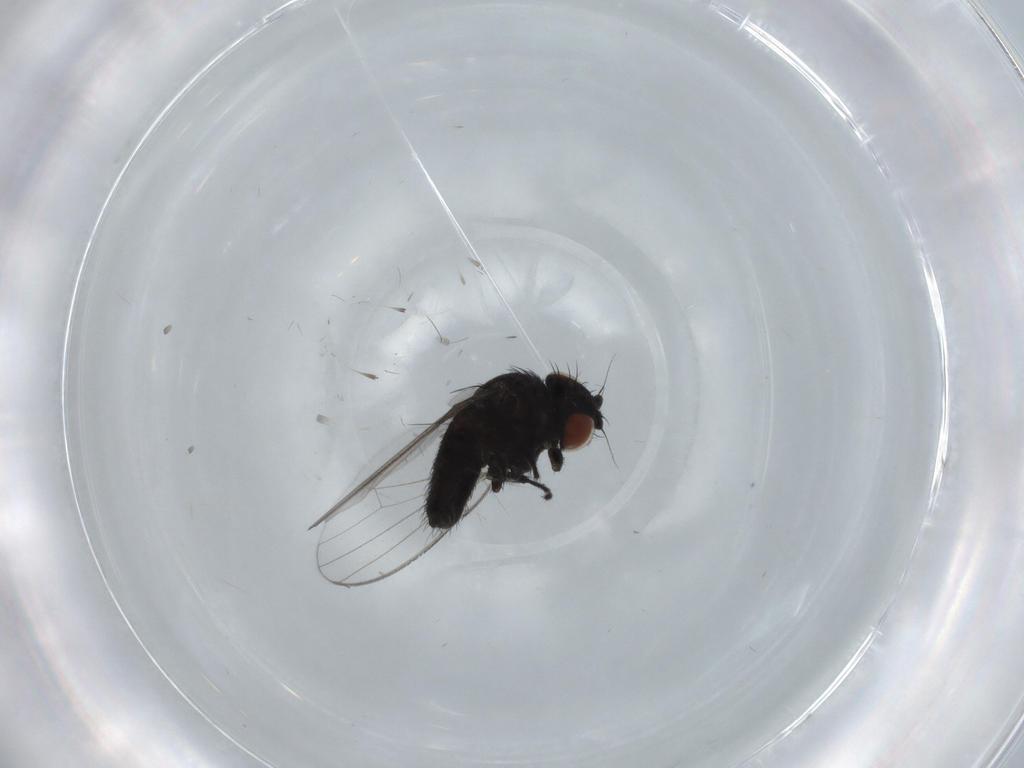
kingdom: Animalia
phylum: Arthropoda
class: Insecta
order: Diptera
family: Milichiidae
